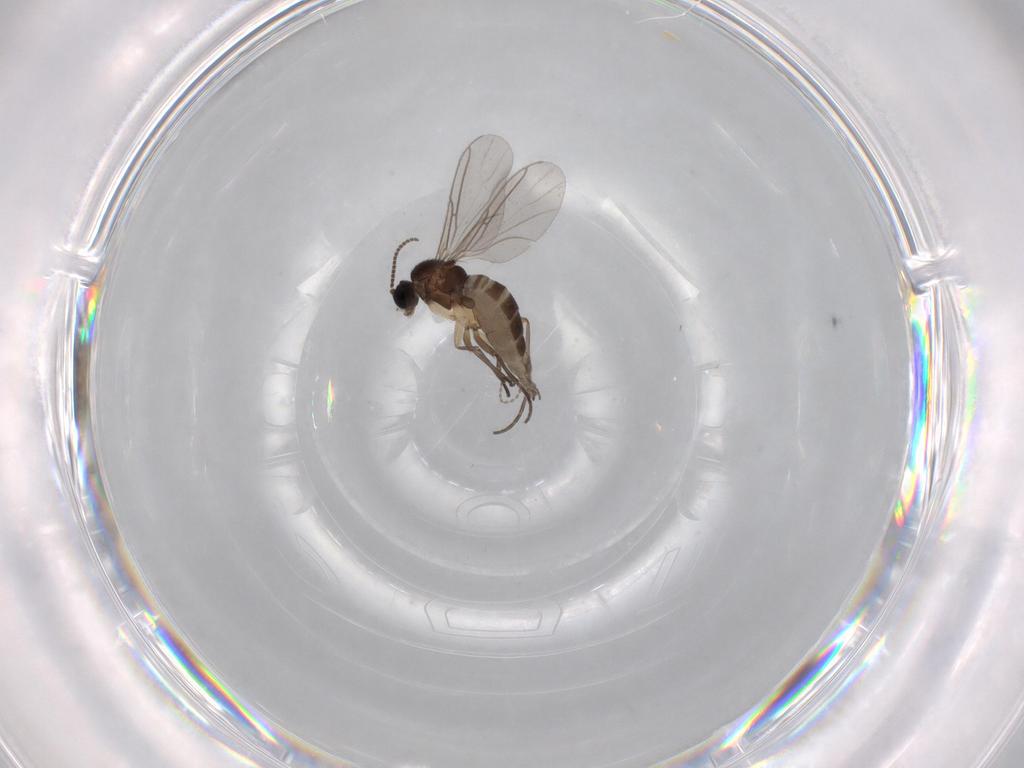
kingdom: Animalia
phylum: Arthropoda
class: Insecta
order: Diptera
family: Sciaridae
